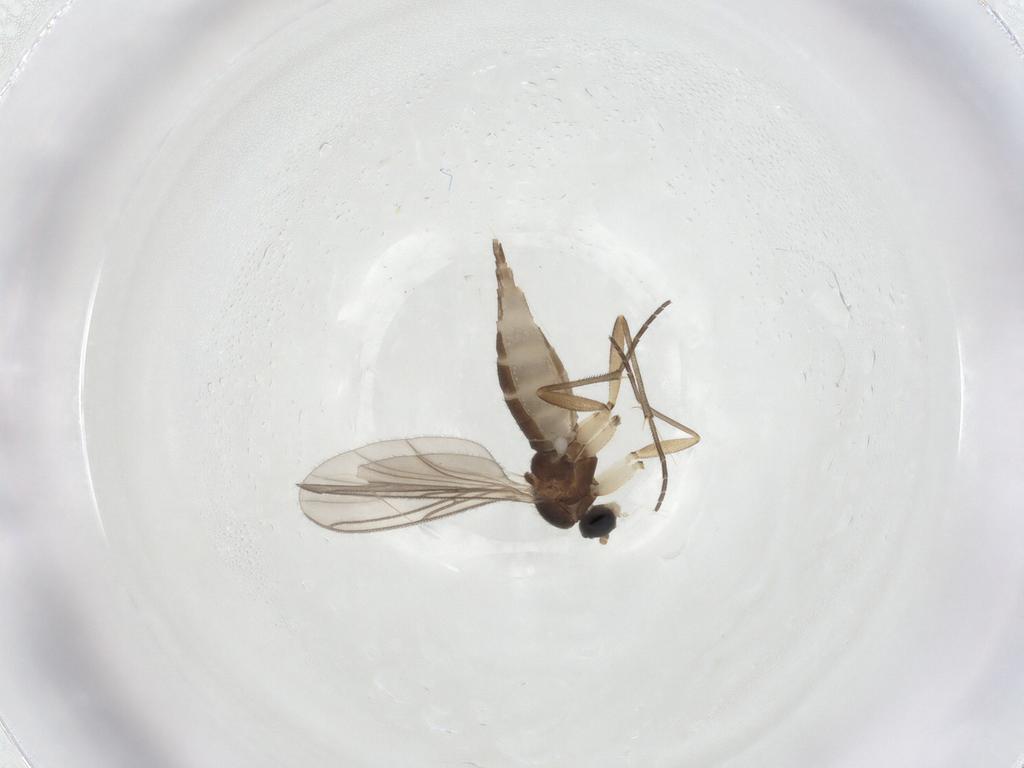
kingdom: Animalia
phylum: Arthropoda
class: Insecta
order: Diptera
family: Sciaridae
